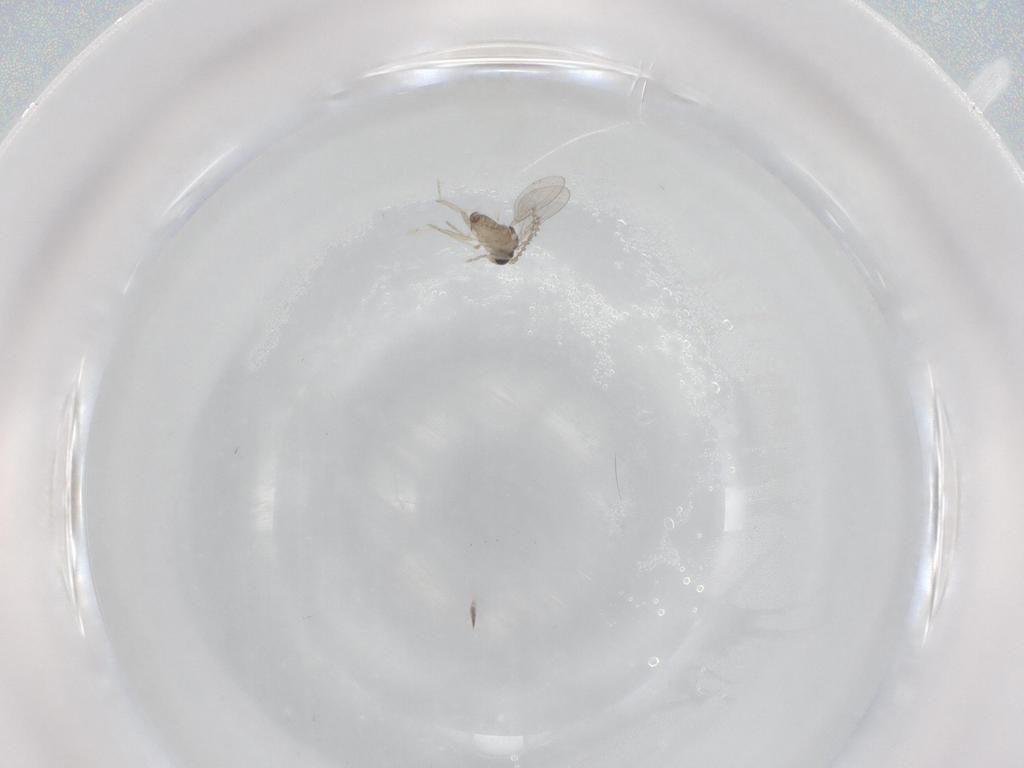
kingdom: Animalia
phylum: Arthropoda
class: Insecta
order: Diptera
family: Cecidomyiidae
